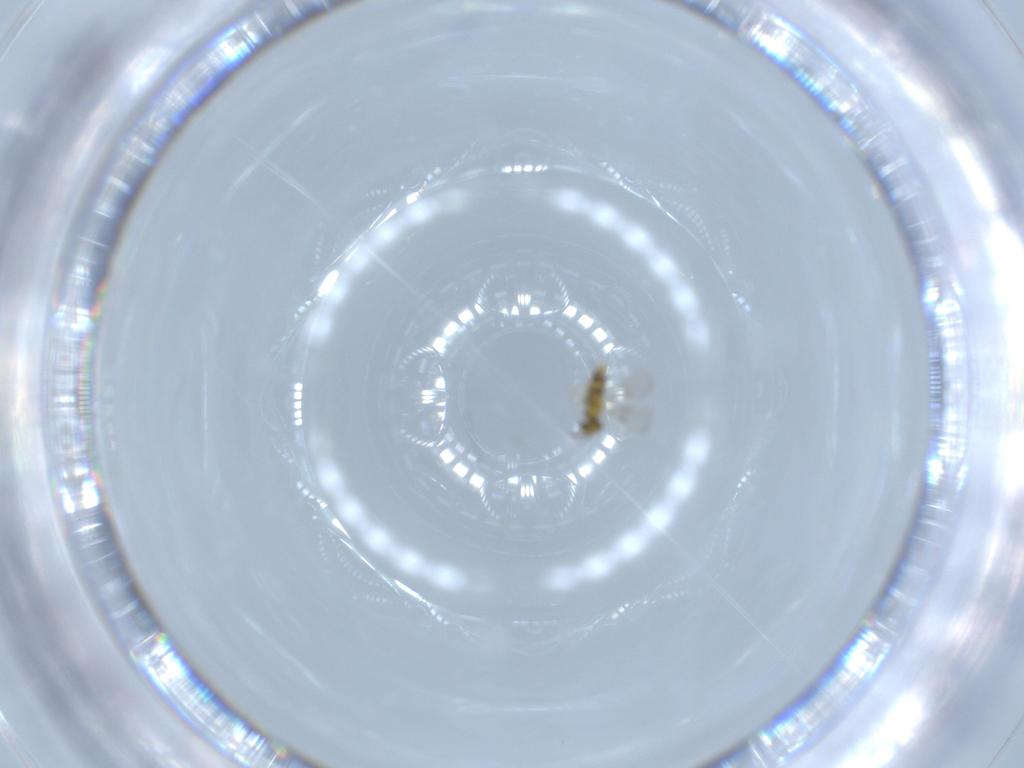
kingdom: Animalia
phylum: Arthropoda
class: Insecta
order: Hymenoptera
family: Aphelinidae
